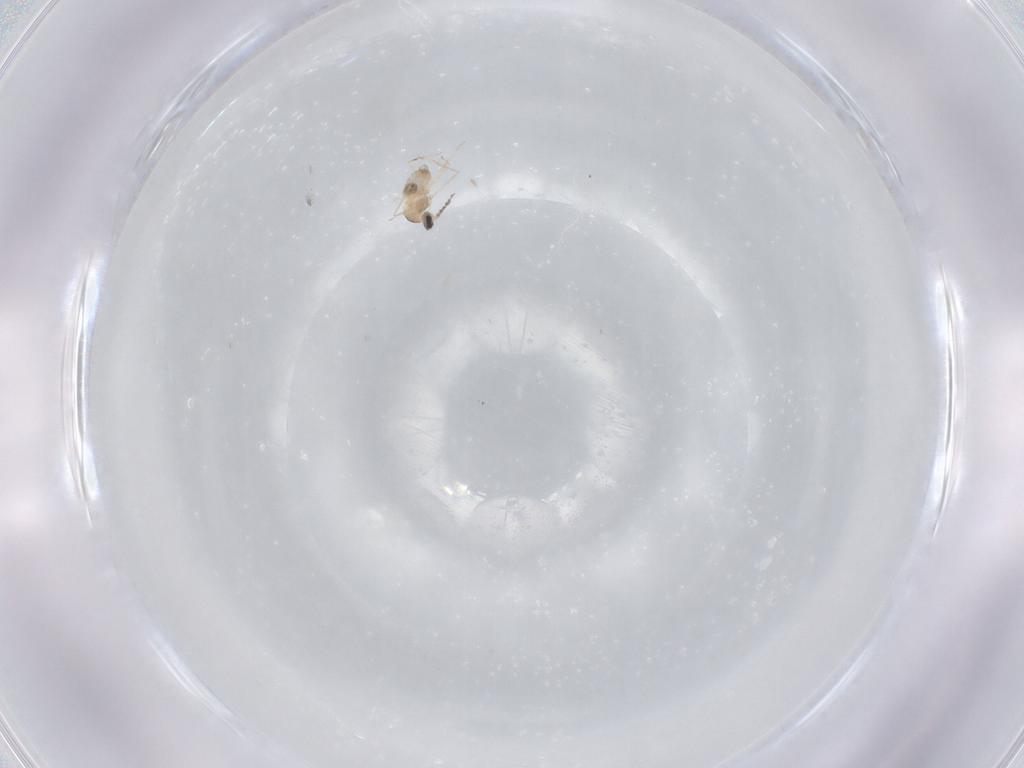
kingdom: Animalia
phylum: Arthropoda
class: Insecta
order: Diptera
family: Cecidomyiidae
